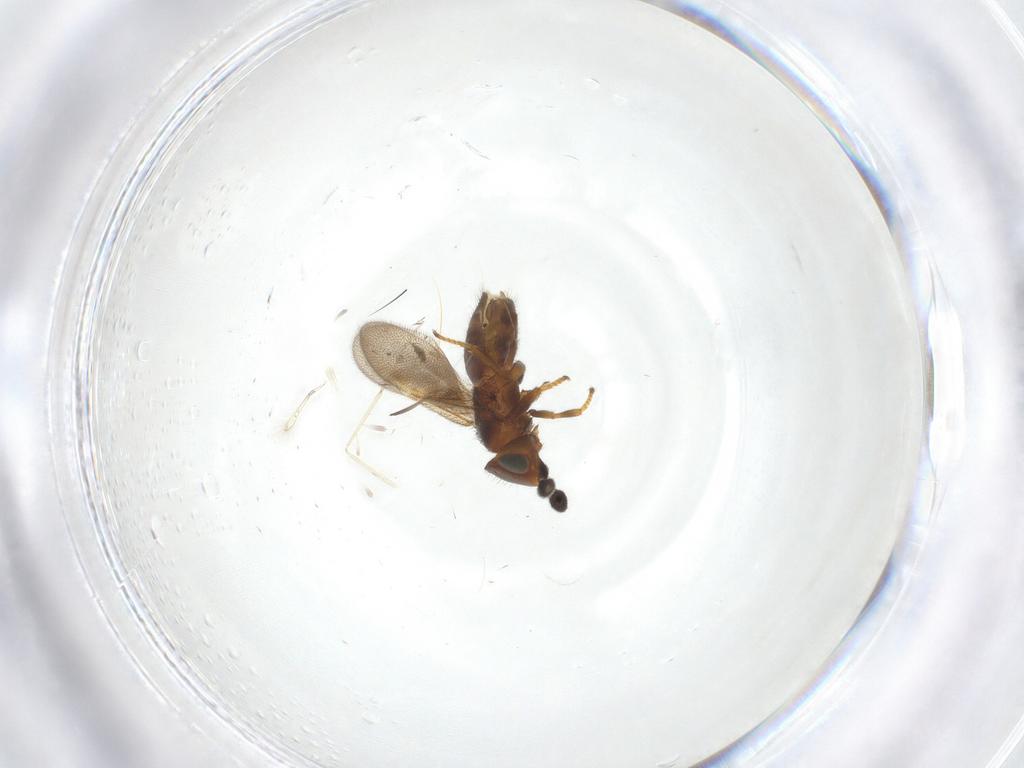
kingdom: Animalia
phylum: Arthropoda
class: Insecta
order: Hymenoptera
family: Encyrtidae
